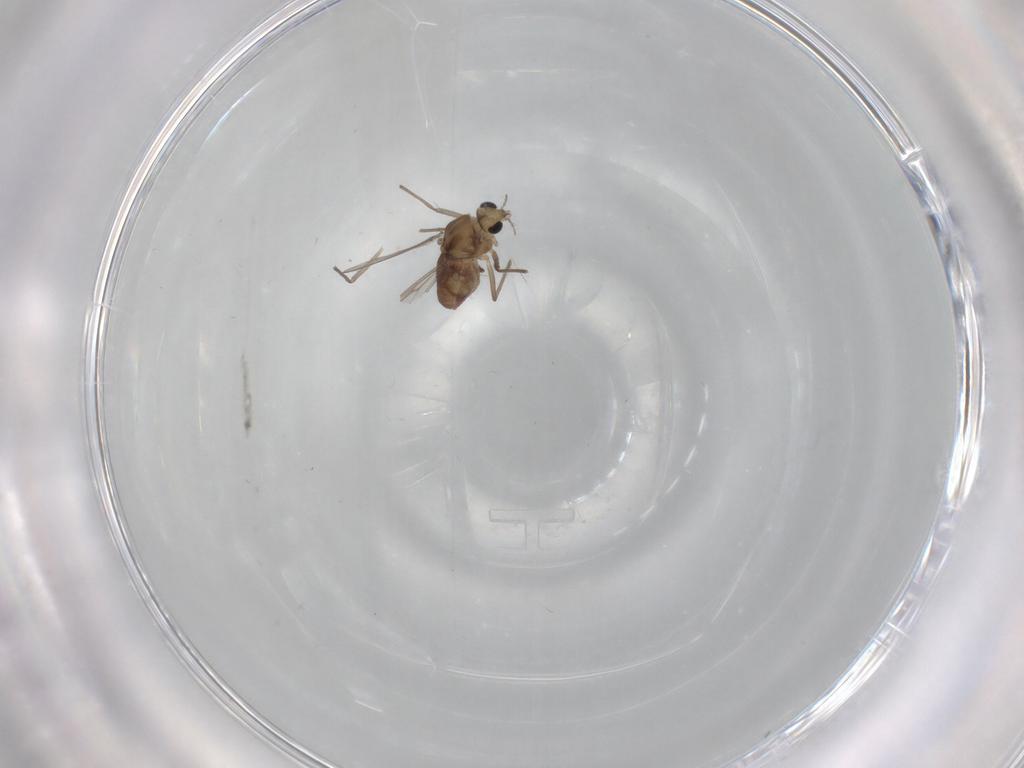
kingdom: Animalia
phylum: Arthropoda
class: Insecta
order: Diptera
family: Chironomidae
